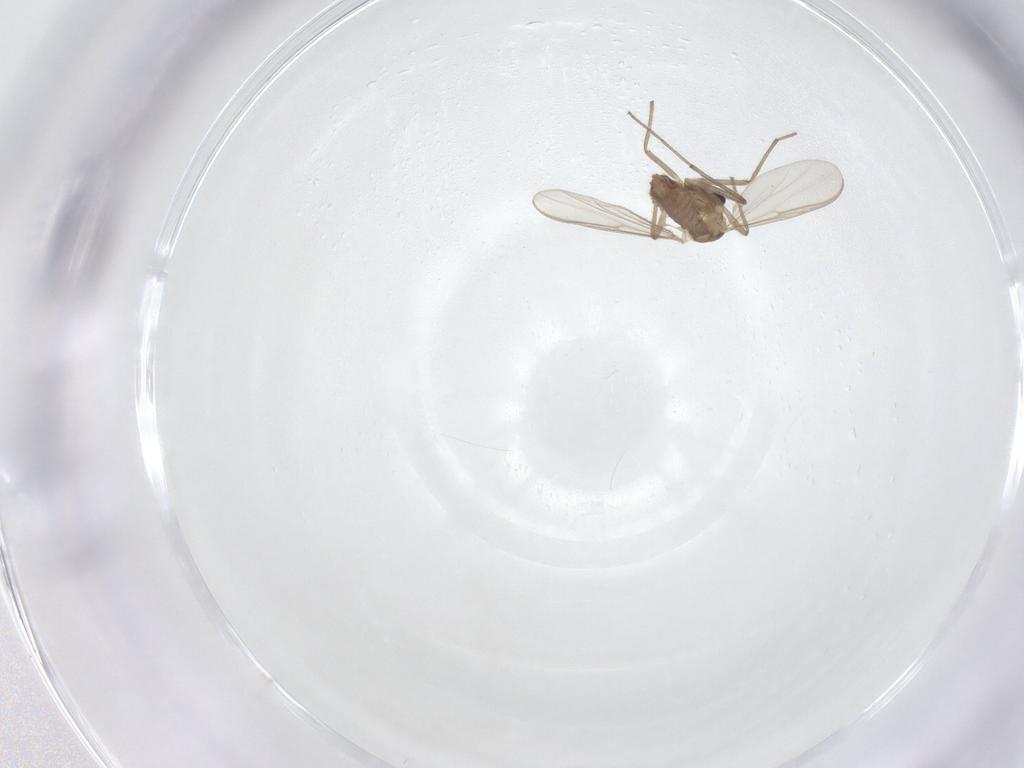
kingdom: Animalia
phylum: Arthropoda
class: Insecta
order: Diptera
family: Chironomidae
